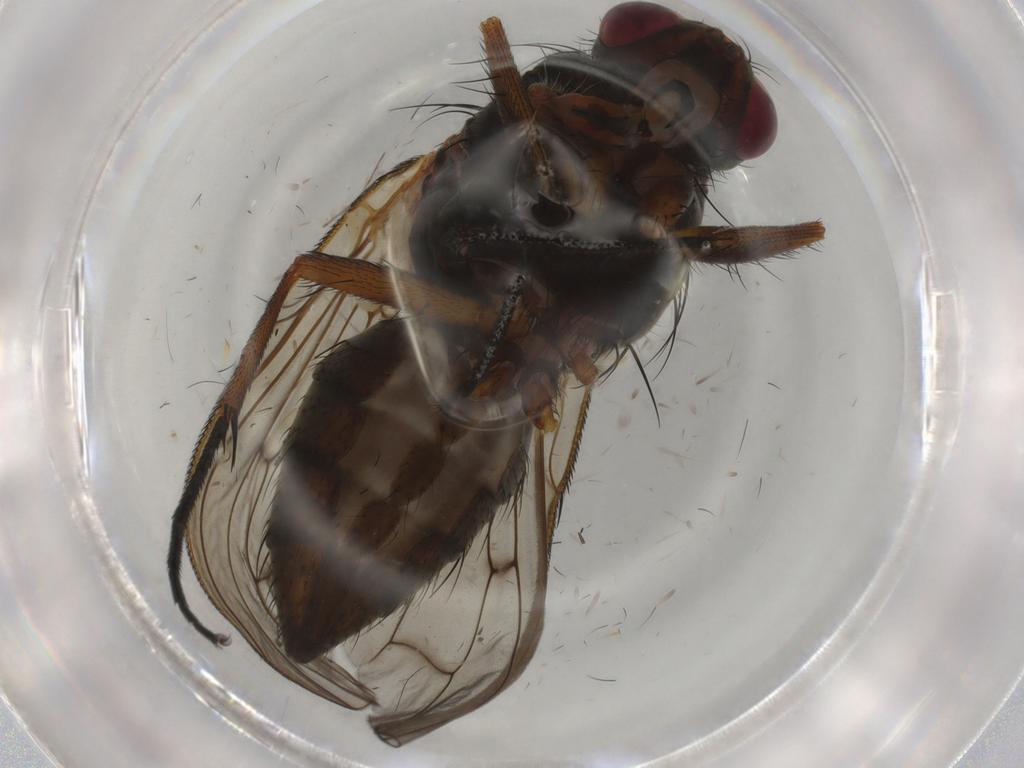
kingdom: Animalia
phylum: Arthropoda
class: Insecta
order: Diptera
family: Anthomyiidae
